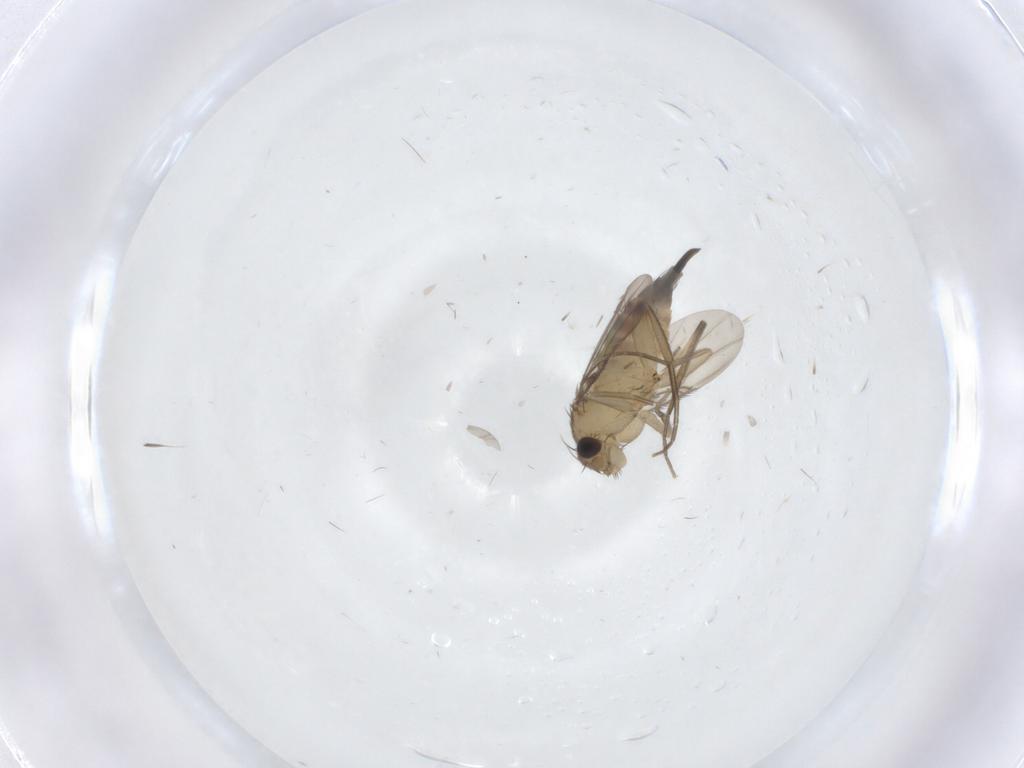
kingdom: Animalia
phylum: Arthropoda
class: Insecta
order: Diptera
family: Phoridae
